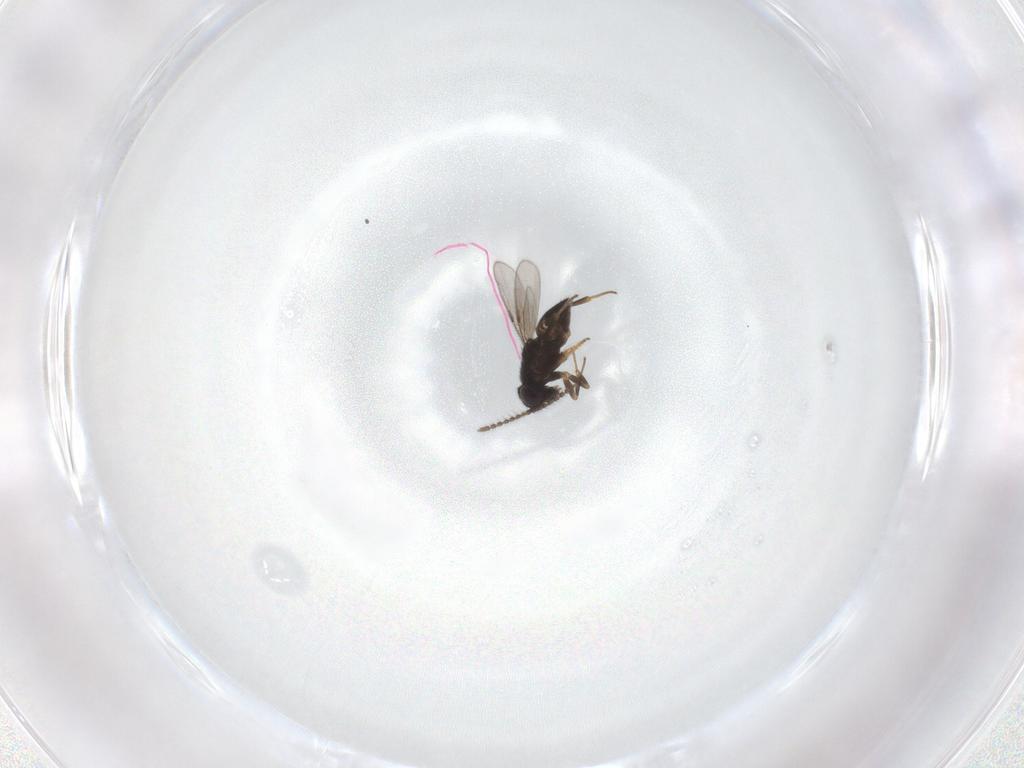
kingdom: Animalia
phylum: Arthropoda
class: Insecta
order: Hymenoptera
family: Encyrtidae
